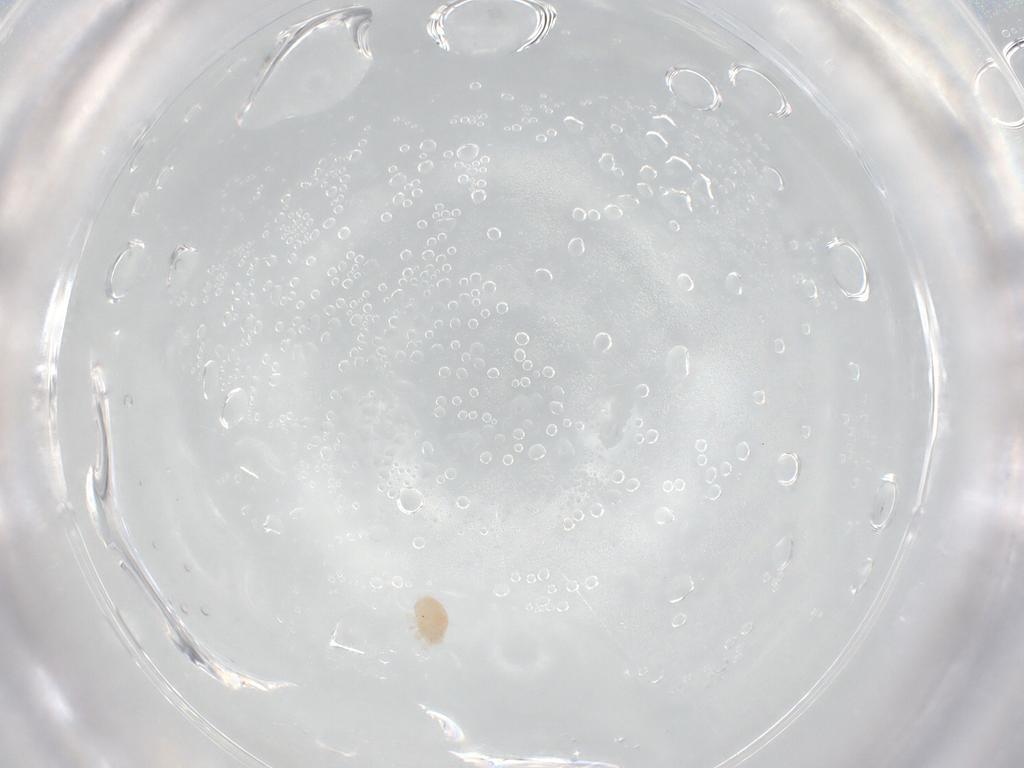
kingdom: Animalia
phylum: Arthropoda
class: Arachnida
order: Trombidiformes
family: Stigmaeidae
